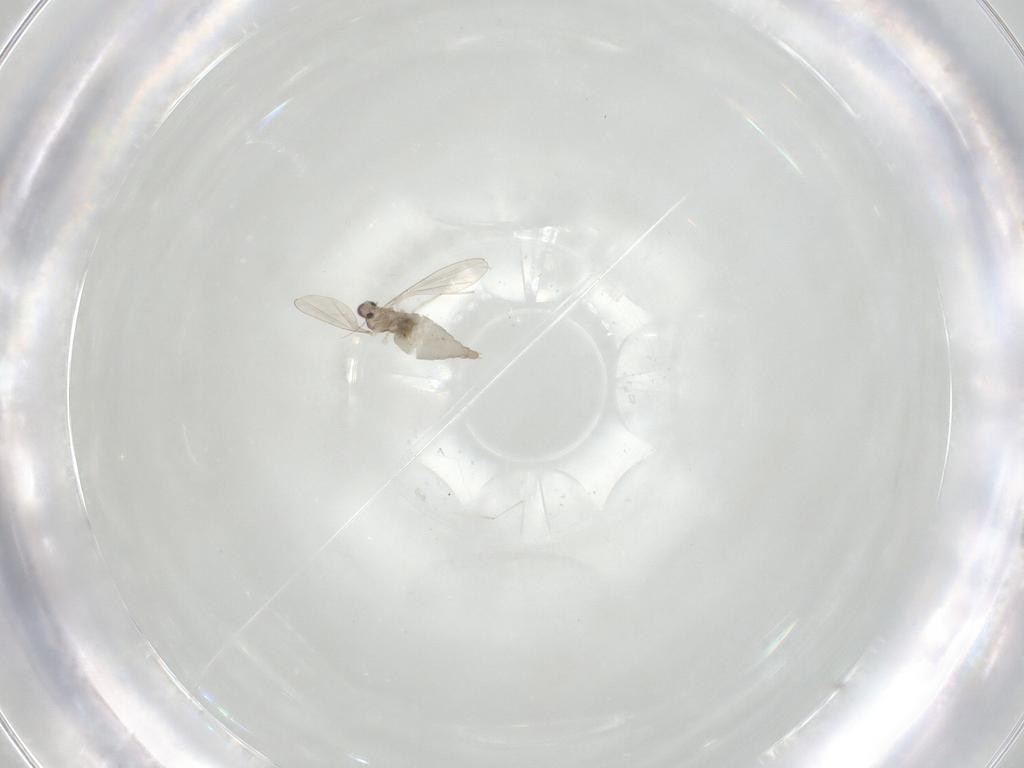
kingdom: Animalia
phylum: Arthropoda
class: Insecta
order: Diptera
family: Cecidomyiidae
